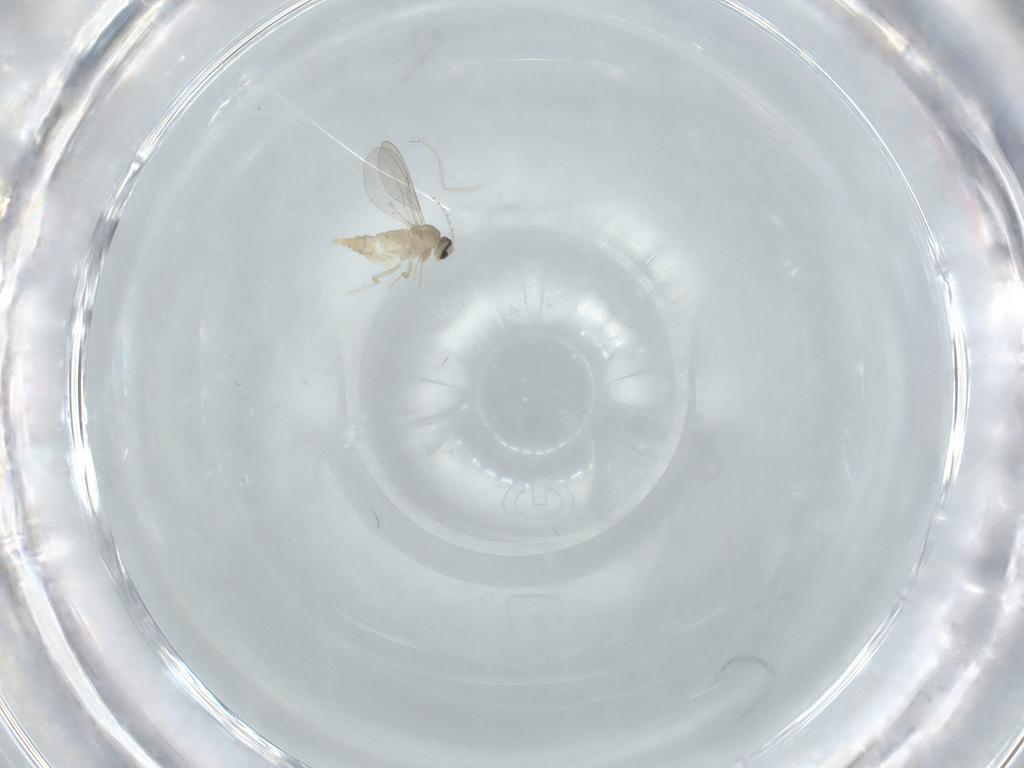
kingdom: Animalia
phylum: Arthropoda
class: Insecta
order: Diptera
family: Cecidomyiidae
